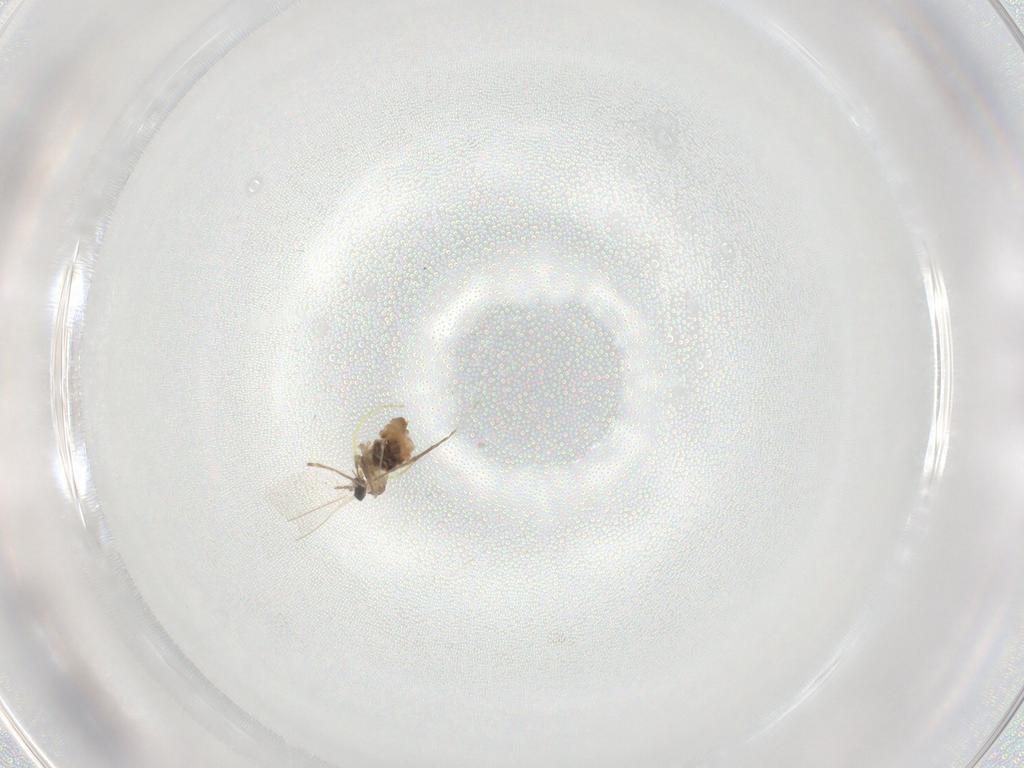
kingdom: Animalia
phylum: Arthropoda
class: Insecta
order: Diptera
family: Cecidomyiidae
